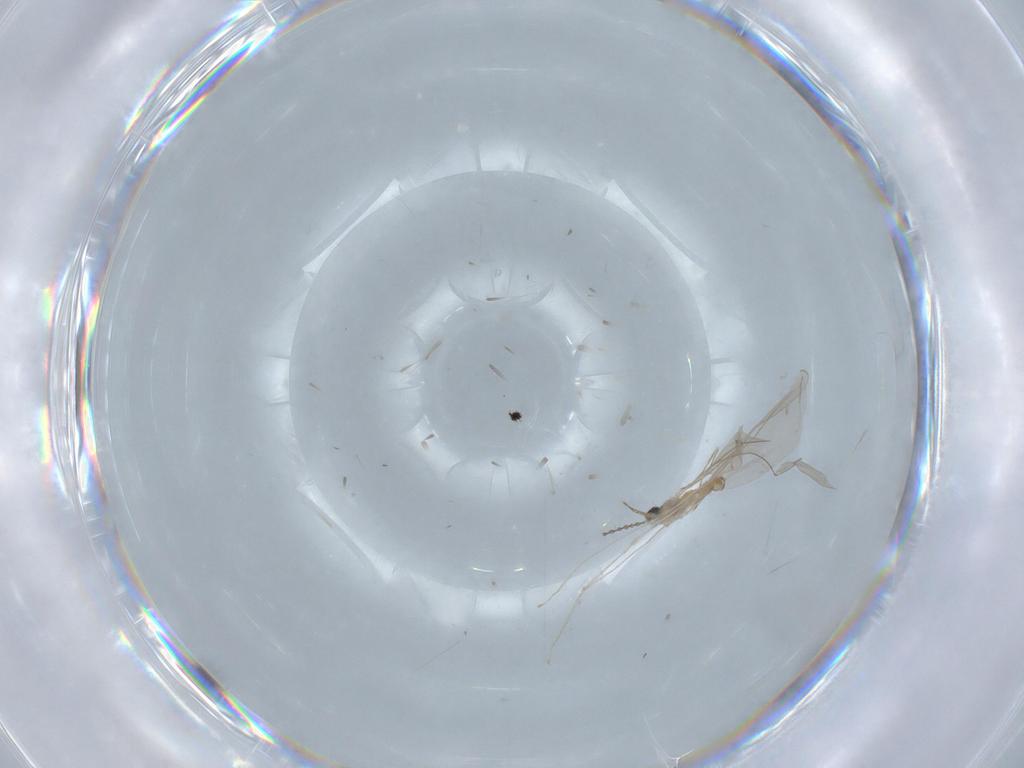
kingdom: Animalia
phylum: Arthropoda
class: Insecta
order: Diptera
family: Cecidomyiidae
